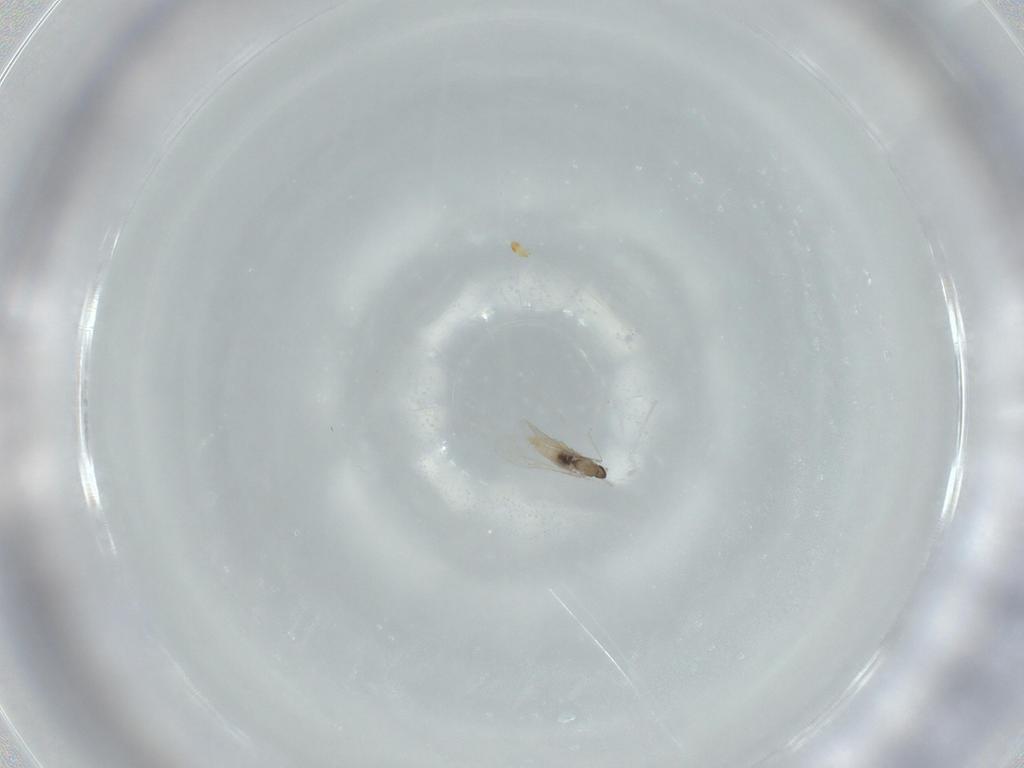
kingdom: Animalia
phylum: Arthropoda
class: Insecta
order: Diptera
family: Cecidomyiidae
